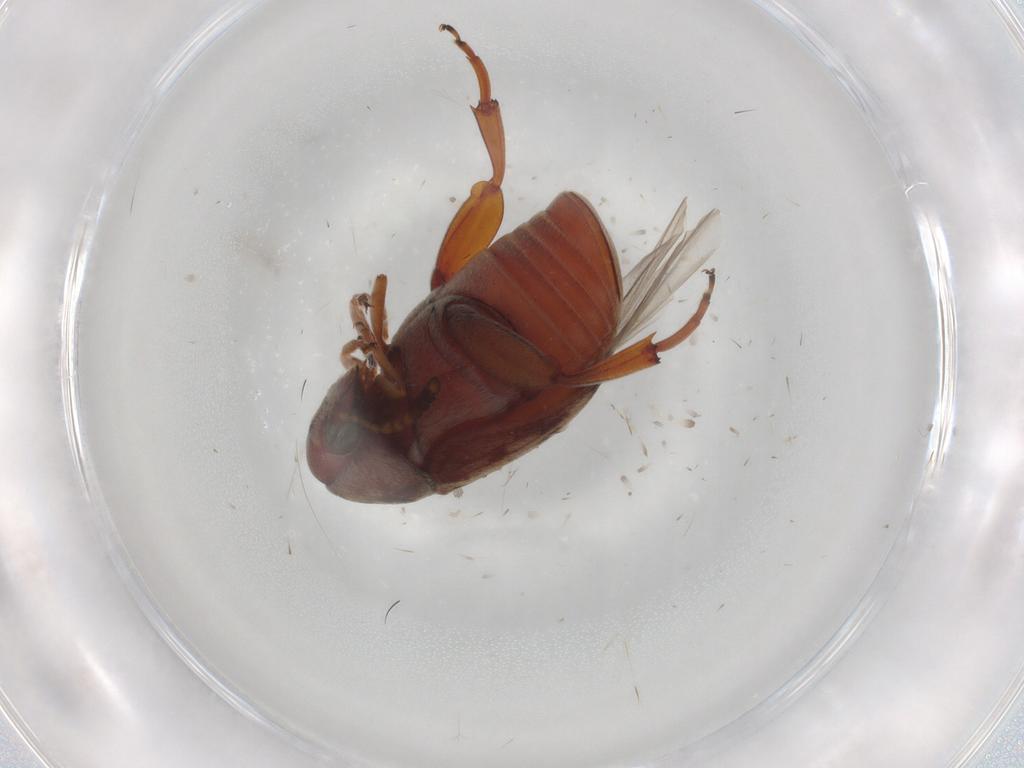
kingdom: Animalia
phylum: Arthropoda
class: Insecta
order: Coleoptera
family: Chrysomelidae
